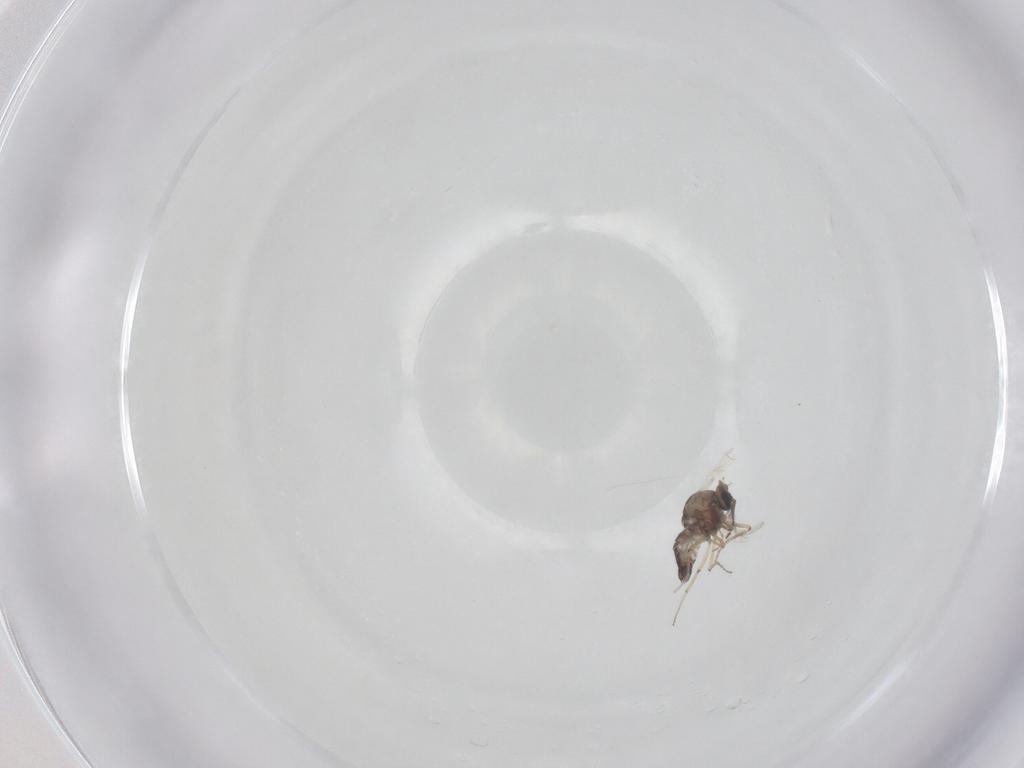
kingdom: Animalia
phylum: Arthropoda
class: Insecta
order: Diptera
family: Ceratopogonidae
